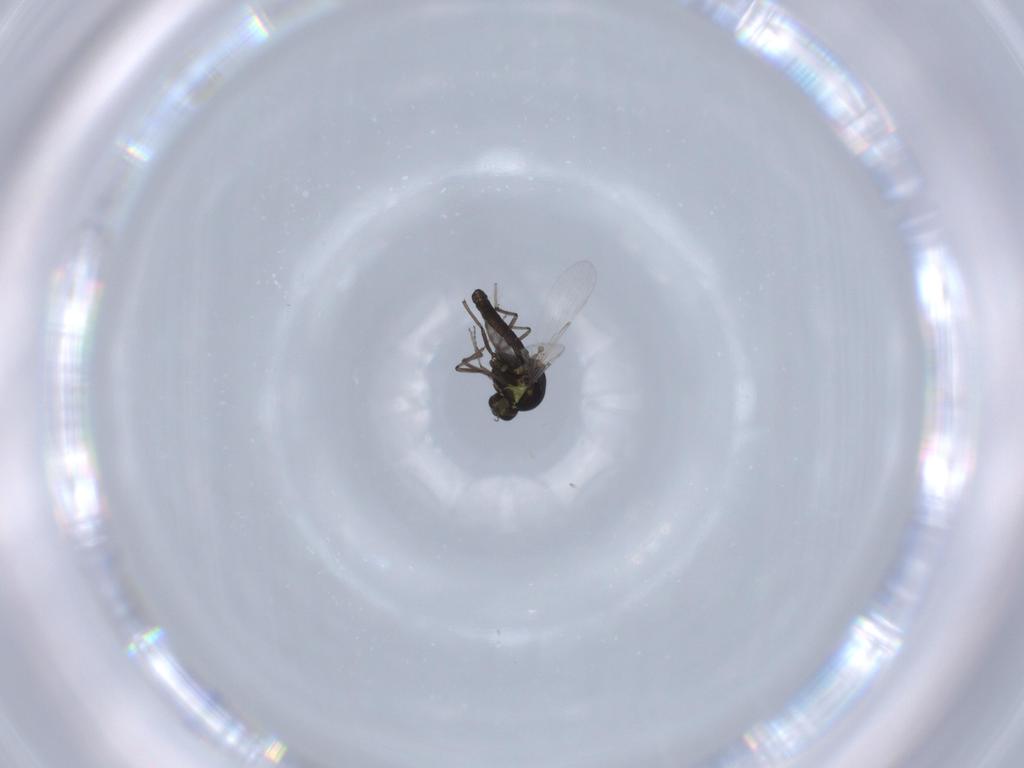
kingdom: Animalia
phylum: Arthropoda
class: Insecta
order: Diptera
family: Ceratopogonidae
